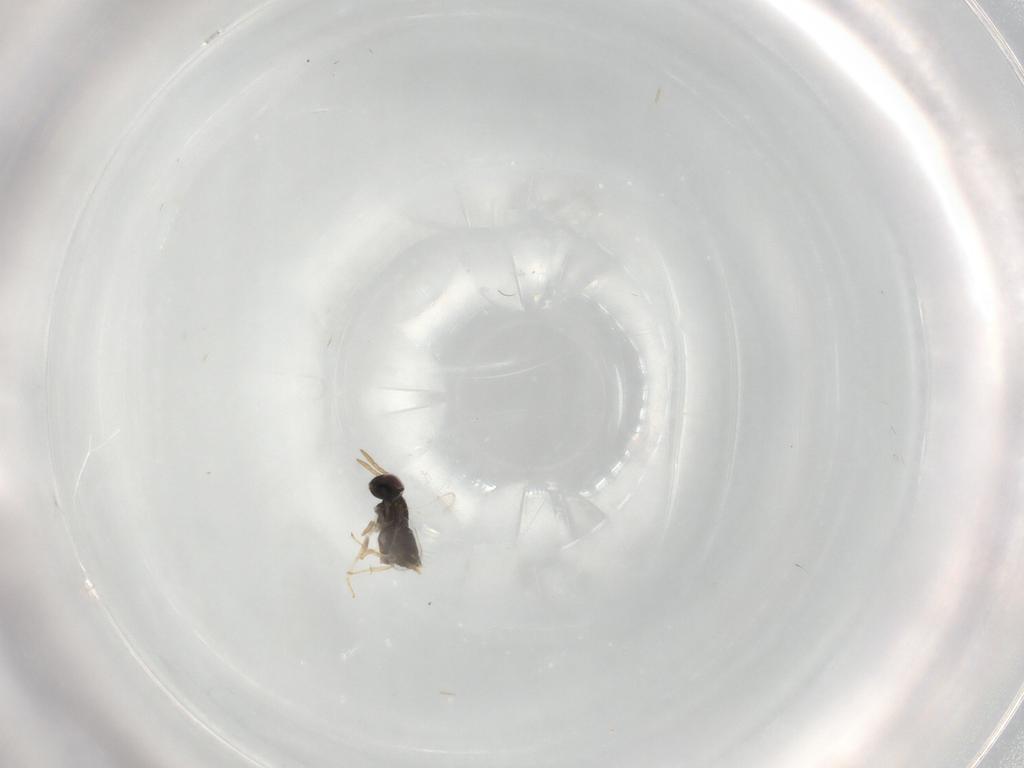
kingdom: Animalia
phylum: Arthropoda
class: Insecta
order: Hymenoptera
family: Aphelinidae
